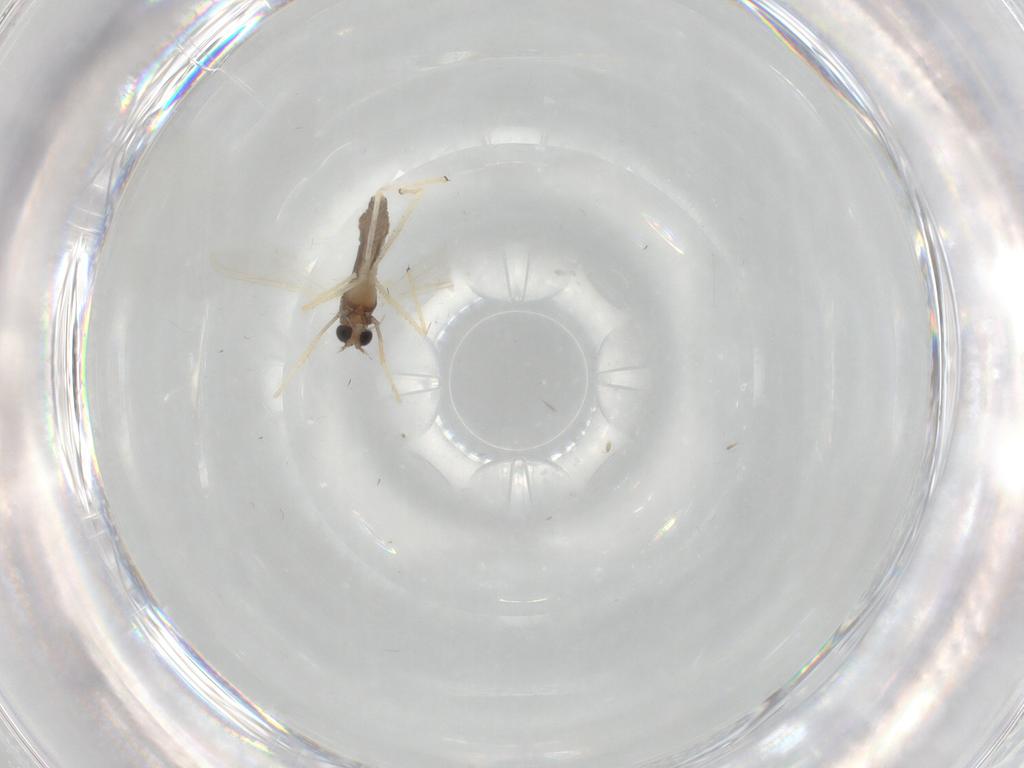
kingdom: Animalia
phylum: Arthropoda
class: Insecta
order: Diptera
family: Chironomidae
